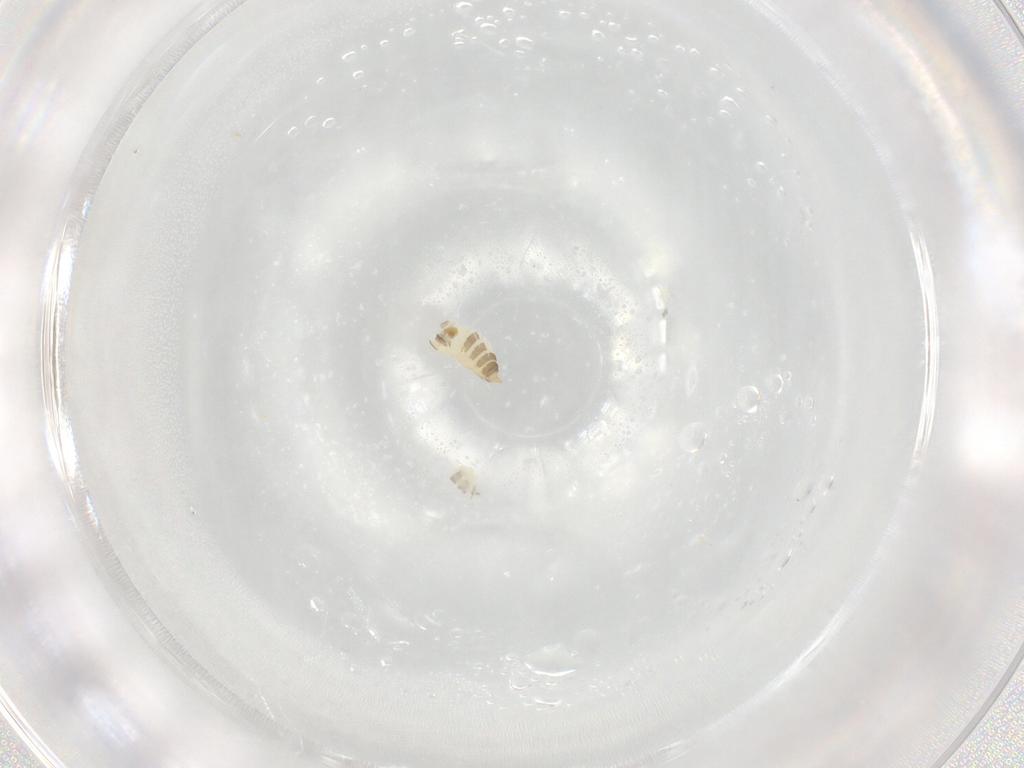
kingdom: Animalia
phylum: Arthropoda
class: Insecta
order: Diptera
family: Cecidomyiidae
